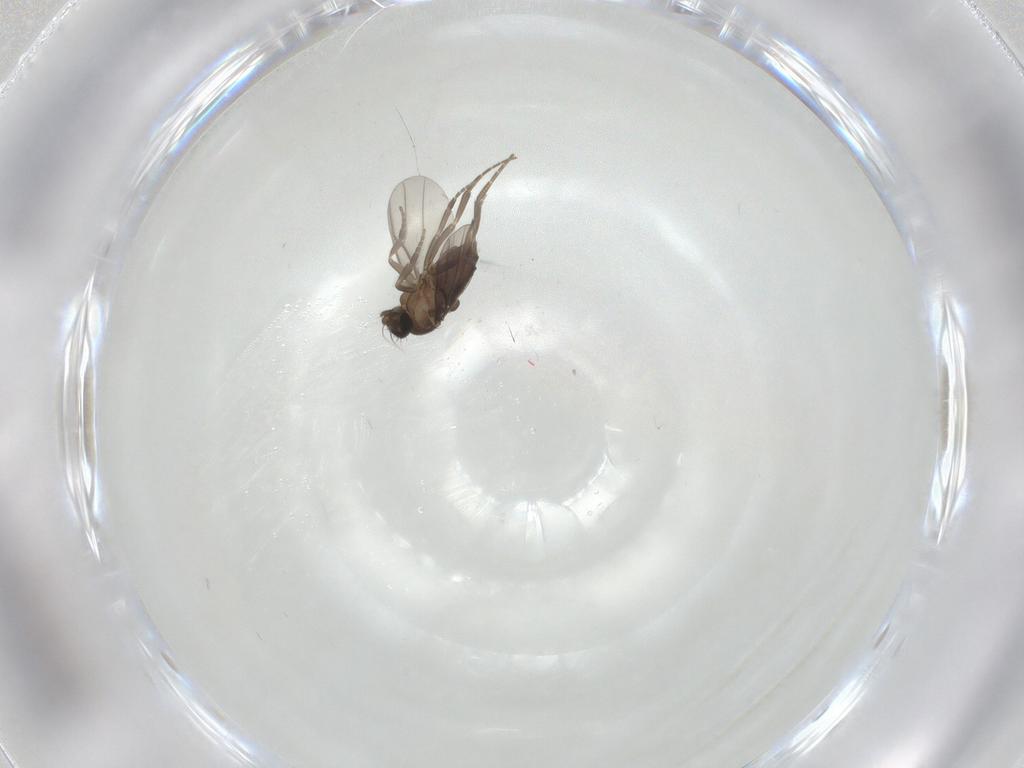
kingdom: Animalia
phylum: Arthropoda
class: Insecta
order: Diptera
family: Phoridae
